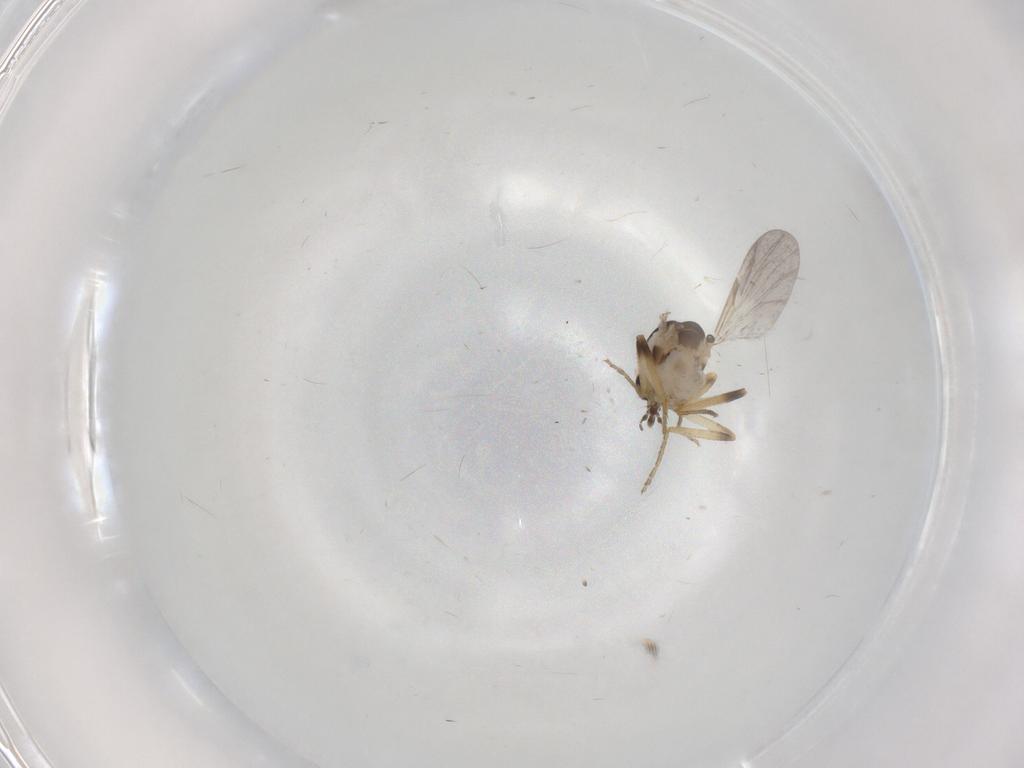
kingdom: Animalia
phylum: Arthropoda
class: Insecta
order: Diptera
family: Ceratopogonidae
